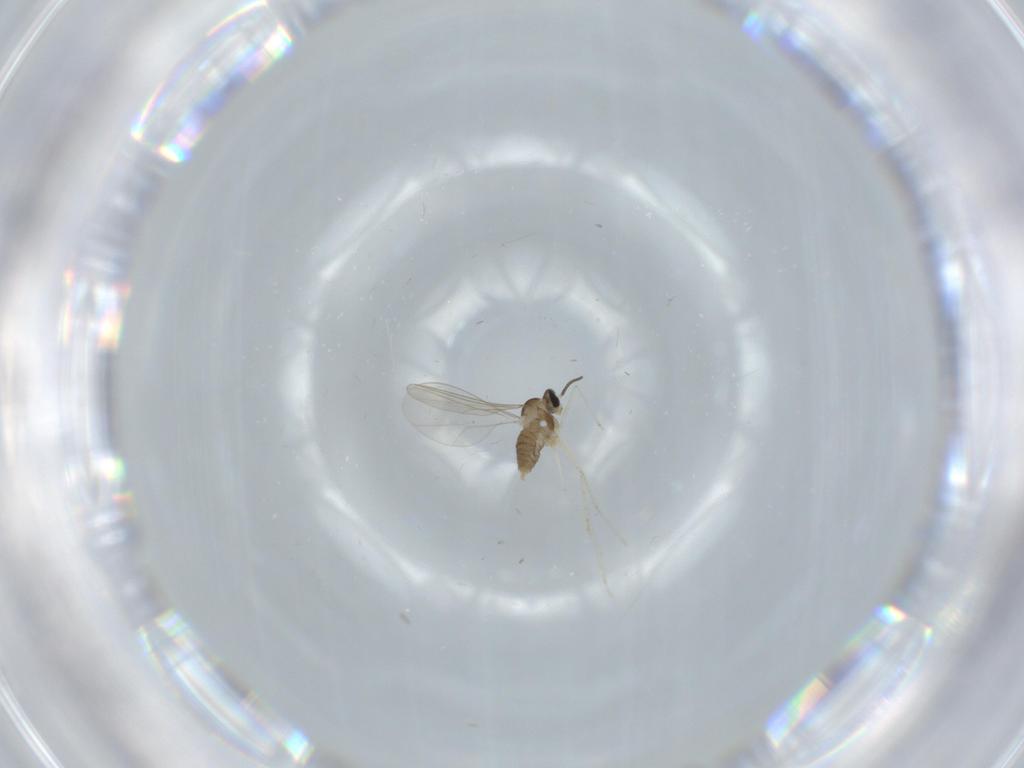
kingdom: Animalia
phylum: Arthropoda
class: Insecta
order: Diptera
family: Cecidomyiidae
